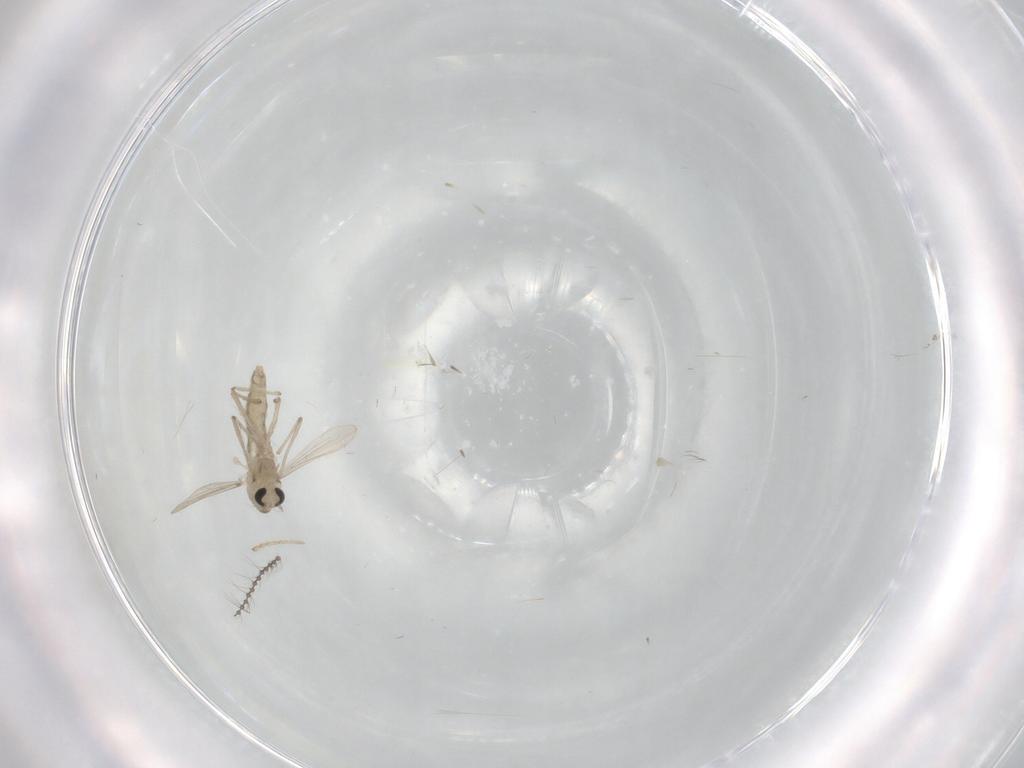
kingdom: Animalia
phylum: Arthropoda
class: Insecta
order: Diptera
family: Chironomidae
